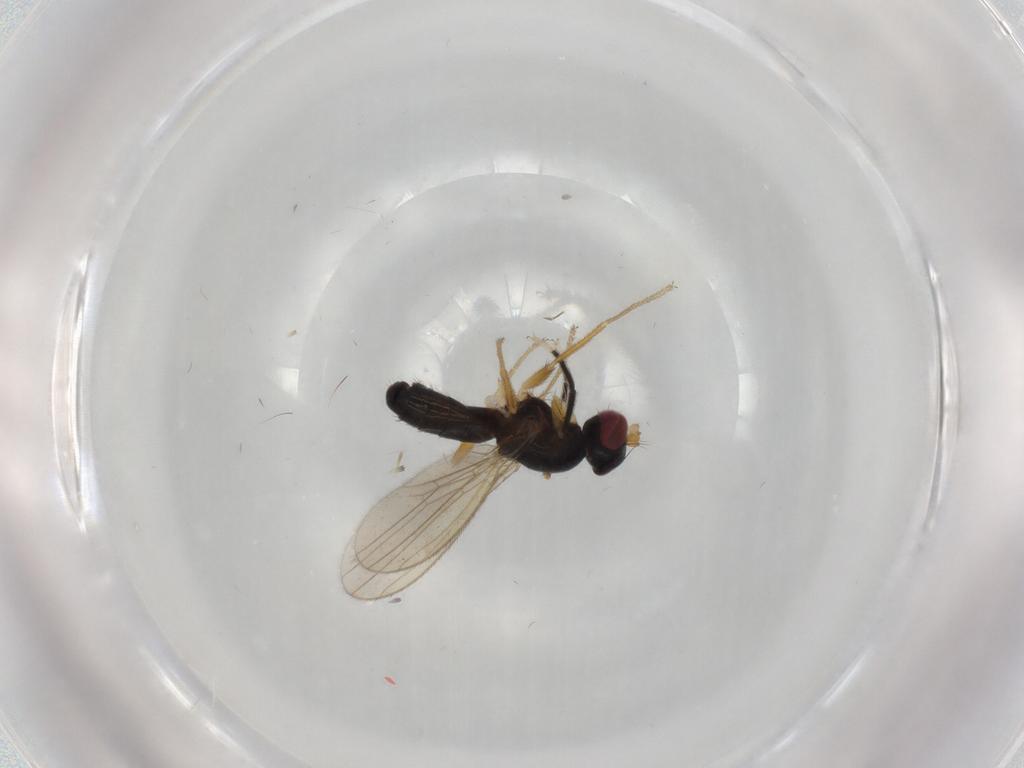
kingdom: Animalia
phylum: Arthropoda
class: Insecta
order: Diptera
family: Anthomyzidae
